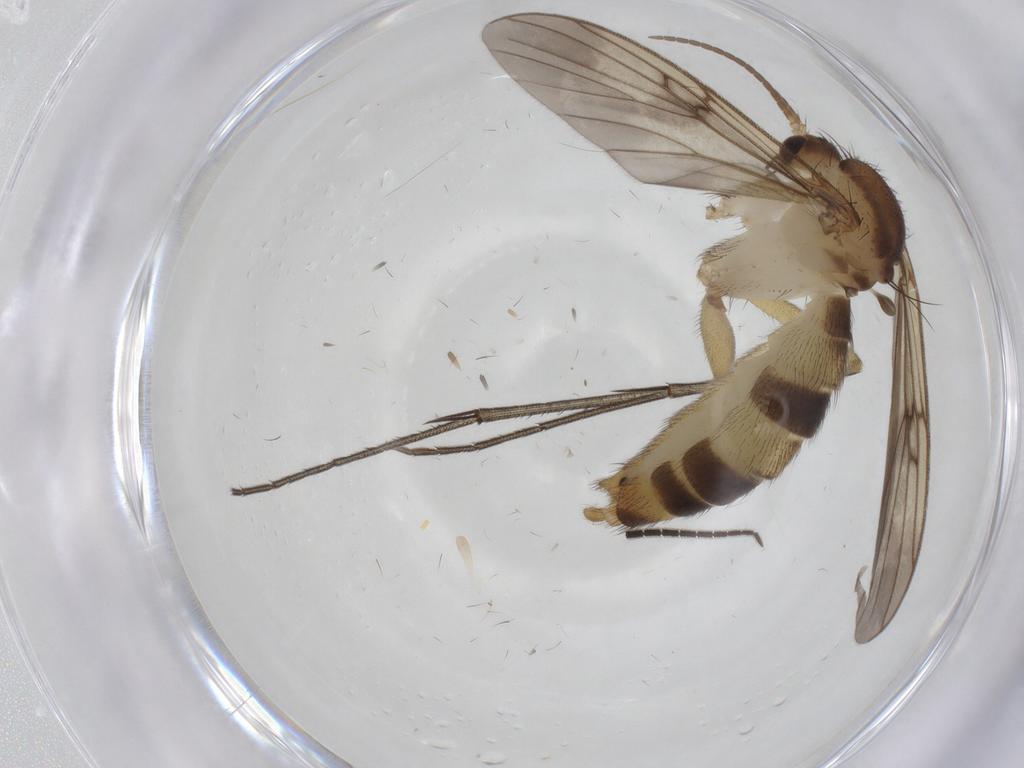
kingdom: Animalia
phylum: Arthropoda
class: Insecta
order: Diptera
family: Mycetophilidae
